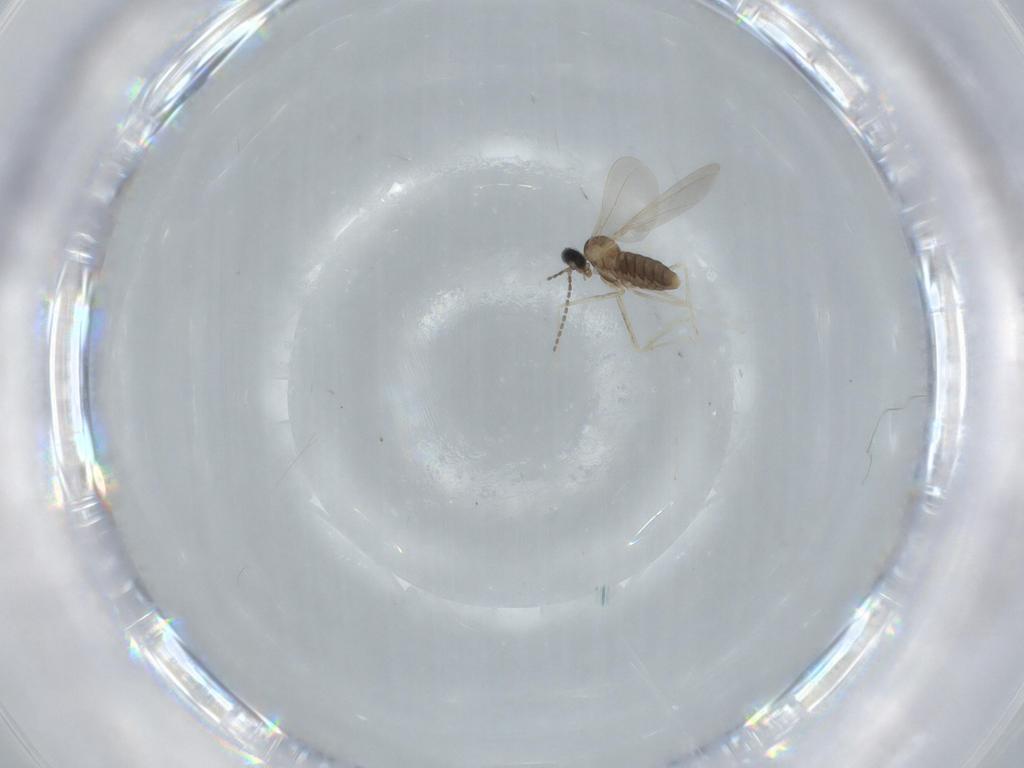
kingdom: Animalia
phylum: Arthropoda
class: Insecta
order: Diptera
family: Cecidomyiidae
